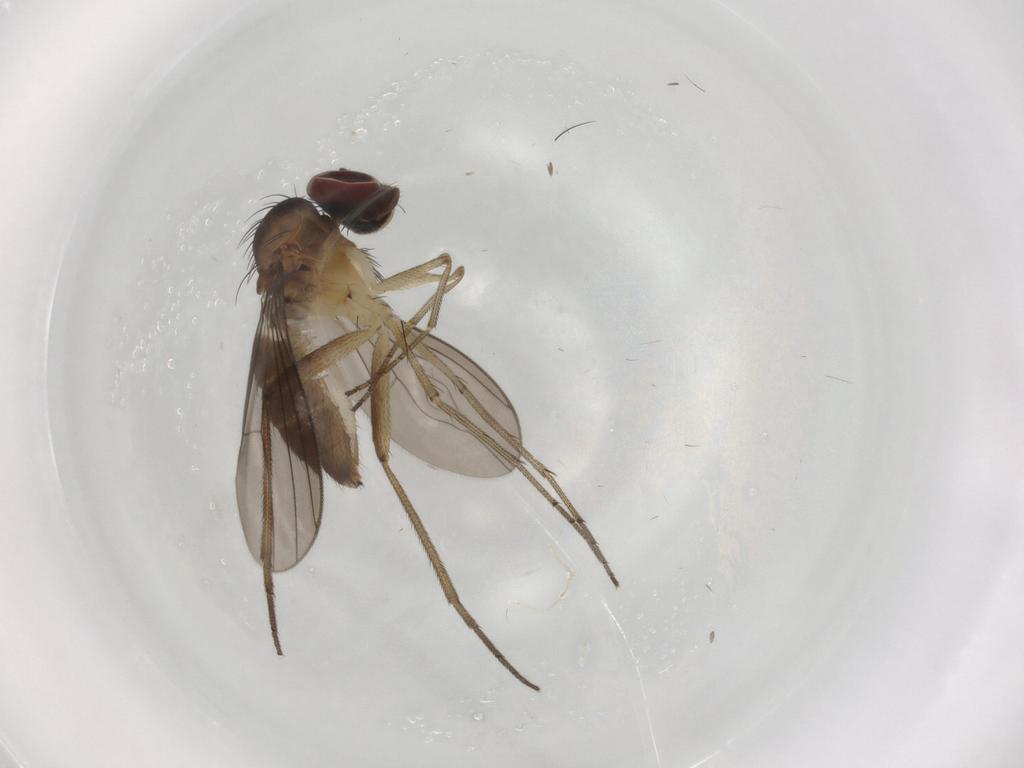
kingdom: Animalia
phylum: Arthropoda
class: Insecta
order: Diptera
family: Dolichopodidae
